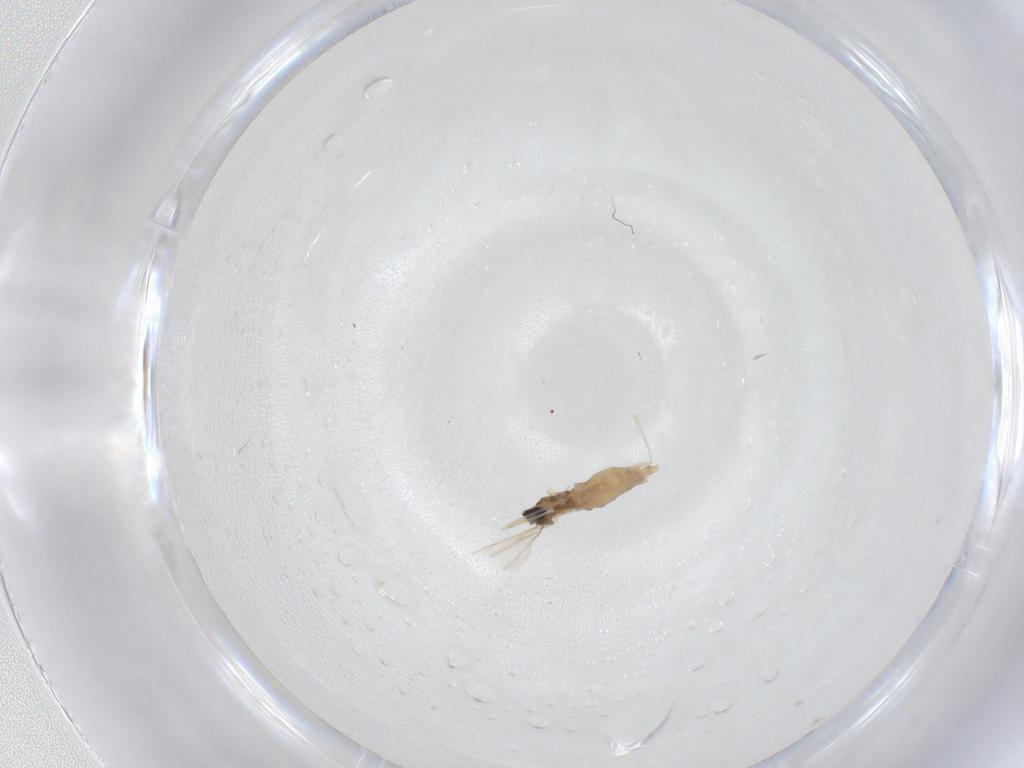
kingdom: Animalia
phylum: Arthropoda
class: Insecta
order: Diptera
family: Cecidomyiidae
